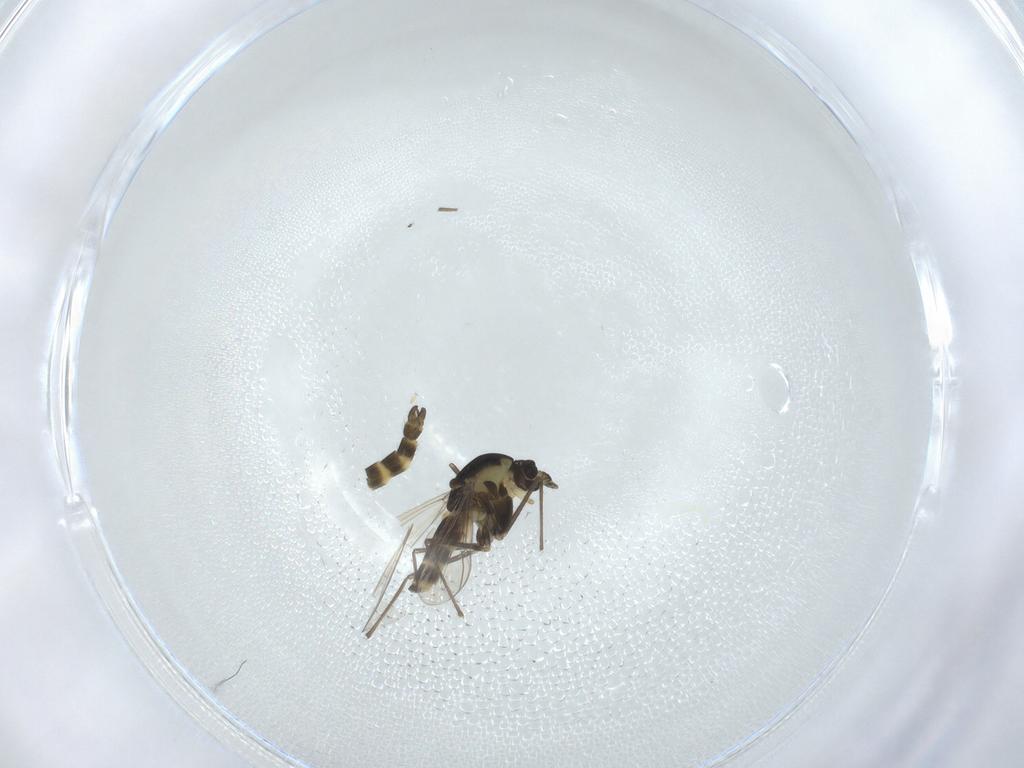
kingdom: Animalia
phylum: Arthropoda
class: Insecta
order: Diptera
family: Chironomidae
